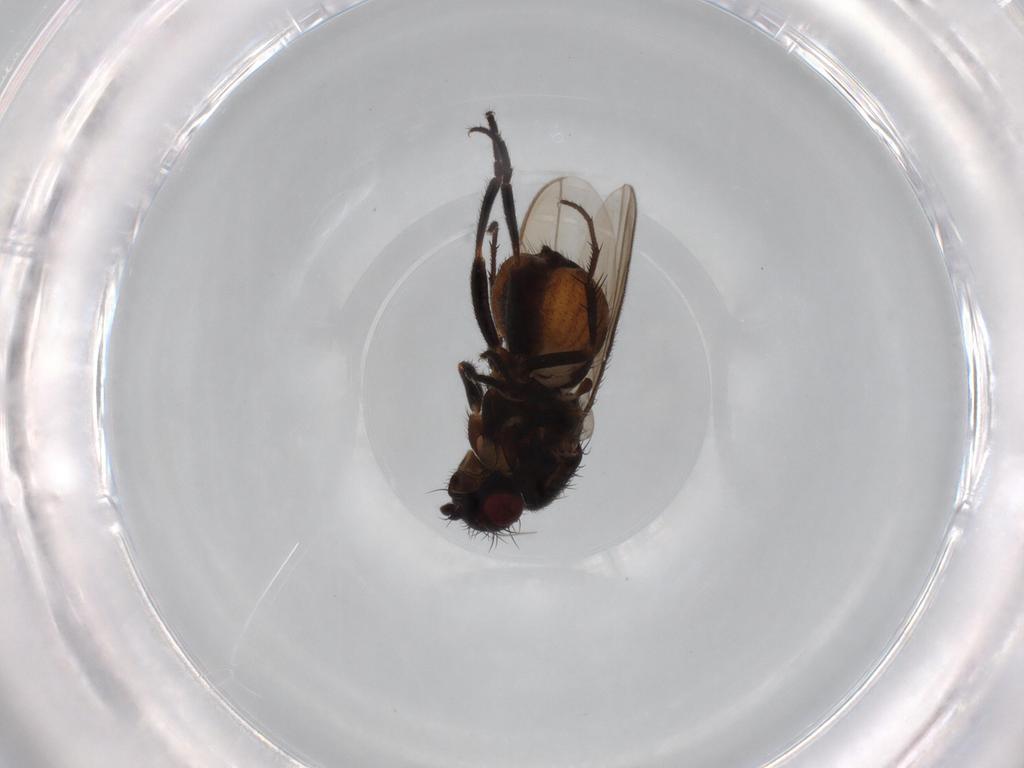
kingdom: Animalia
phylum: Arthropoda
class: Insecta
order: Diptera
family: Sphaeroceridae
